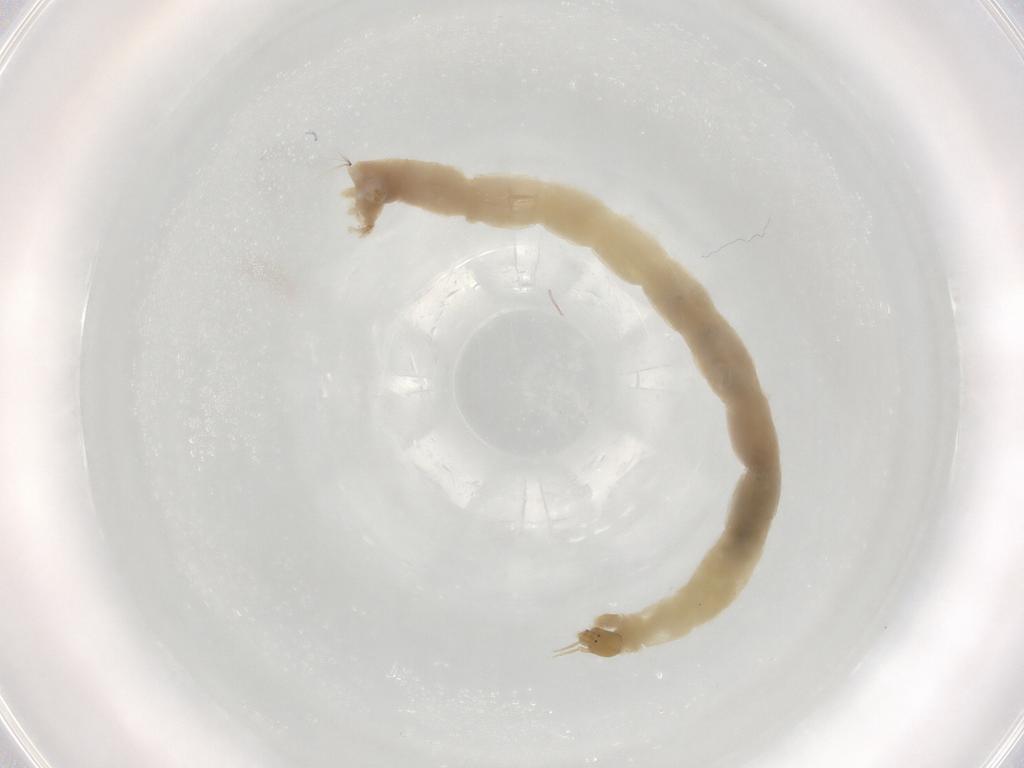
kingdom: Animalia
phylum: Arthropoda
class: Insecta
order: Diptera
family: Chironomidae
